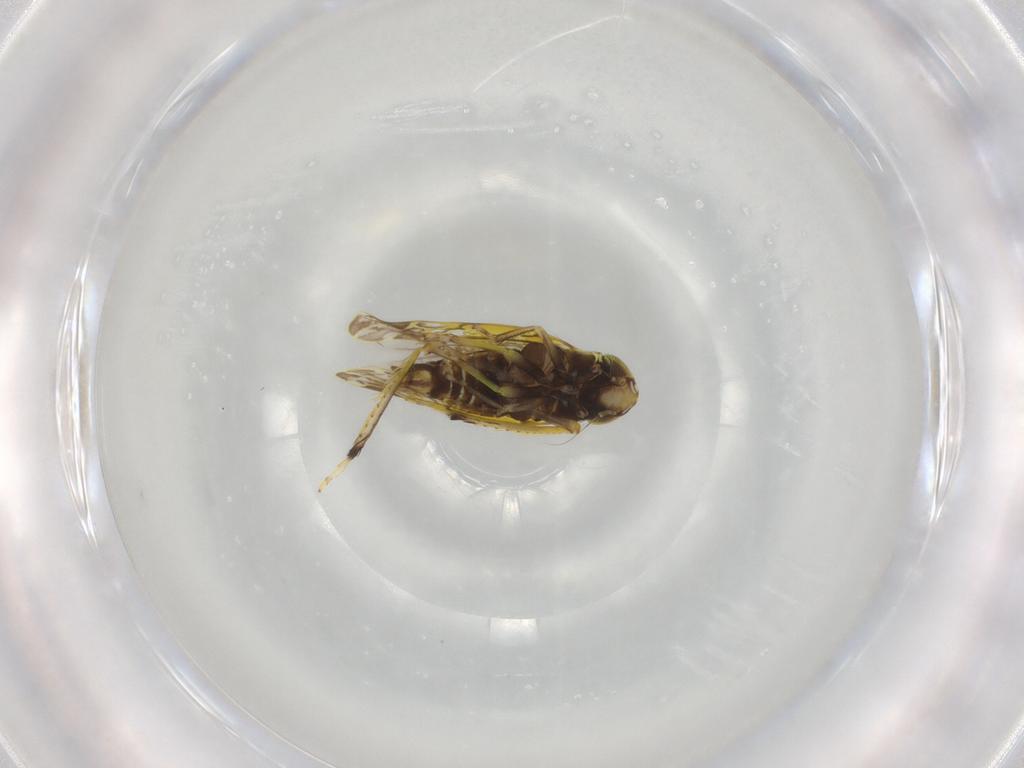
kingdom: Animalia
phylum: Arthropoda
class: Insecta
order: Hemiptera
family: Cicadellidae
